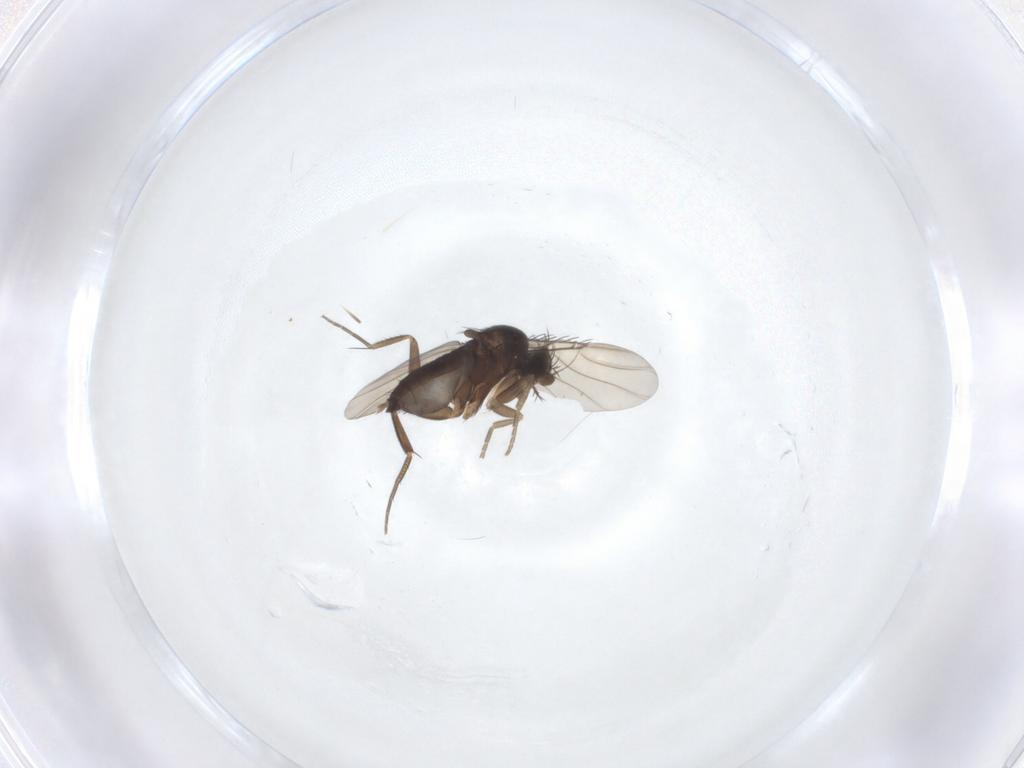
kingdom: Animalia
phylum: Arthropoda
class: Insecta
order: Diptera
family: Phoridae
